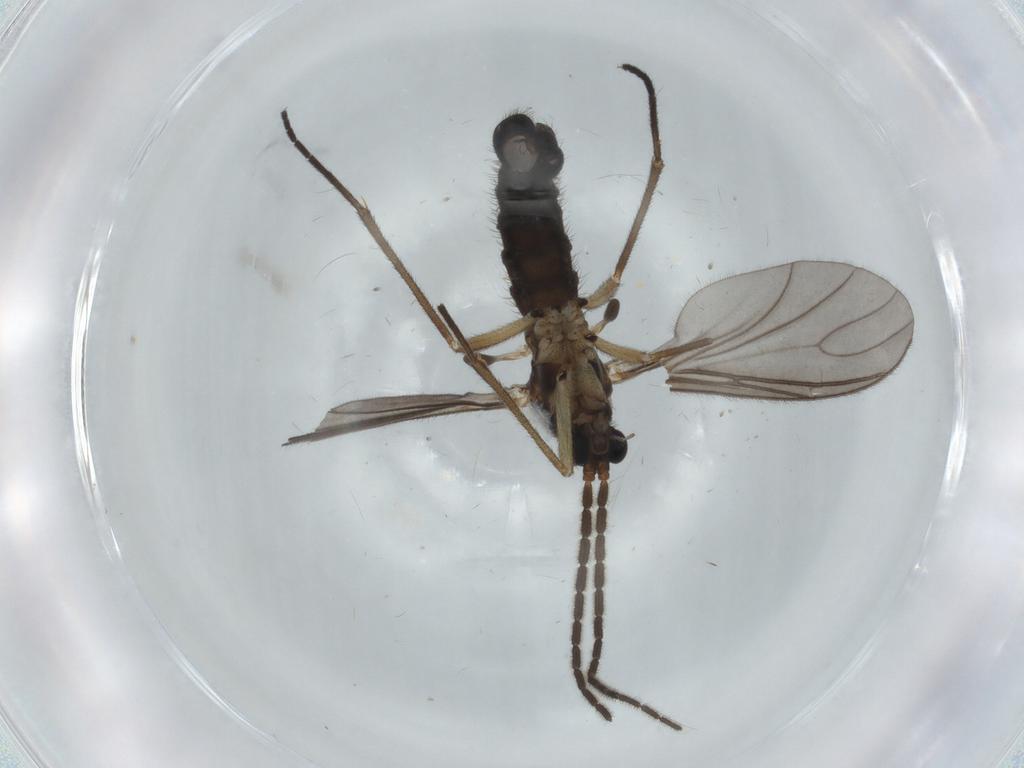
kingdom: Animalia
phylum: Arthropoda
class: Insecta
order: Diptera
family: Sciaridae
